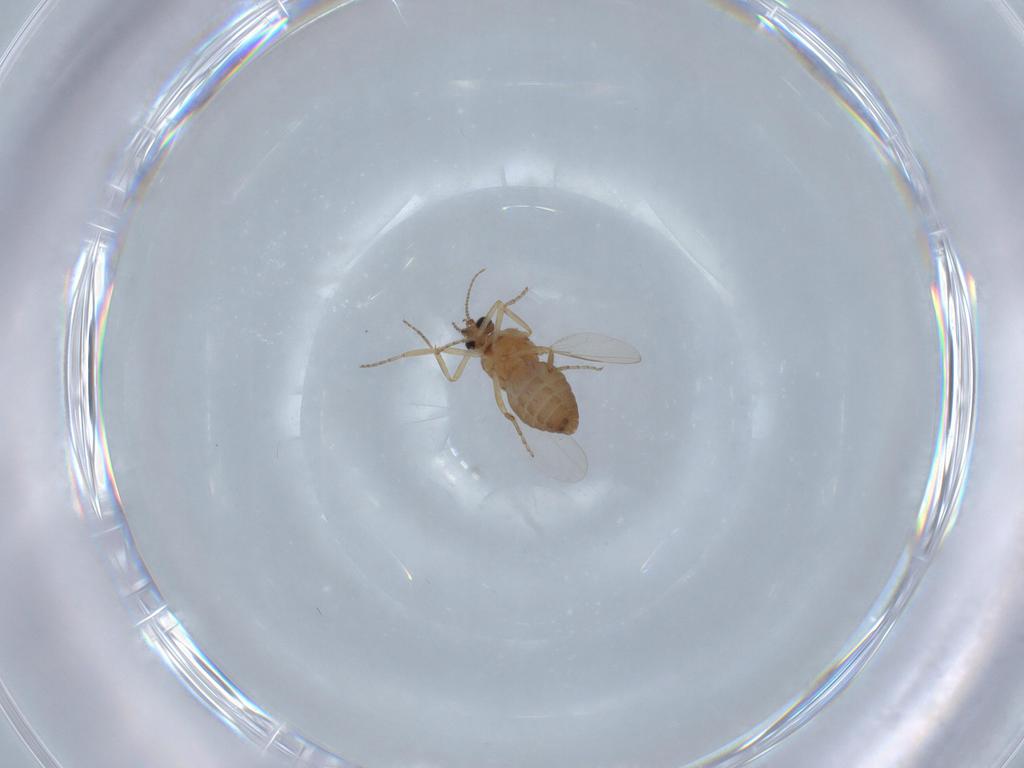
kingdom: Animalia
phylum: Arthropoda
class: Insecta
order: Diptera
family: Ceratopogonidae
